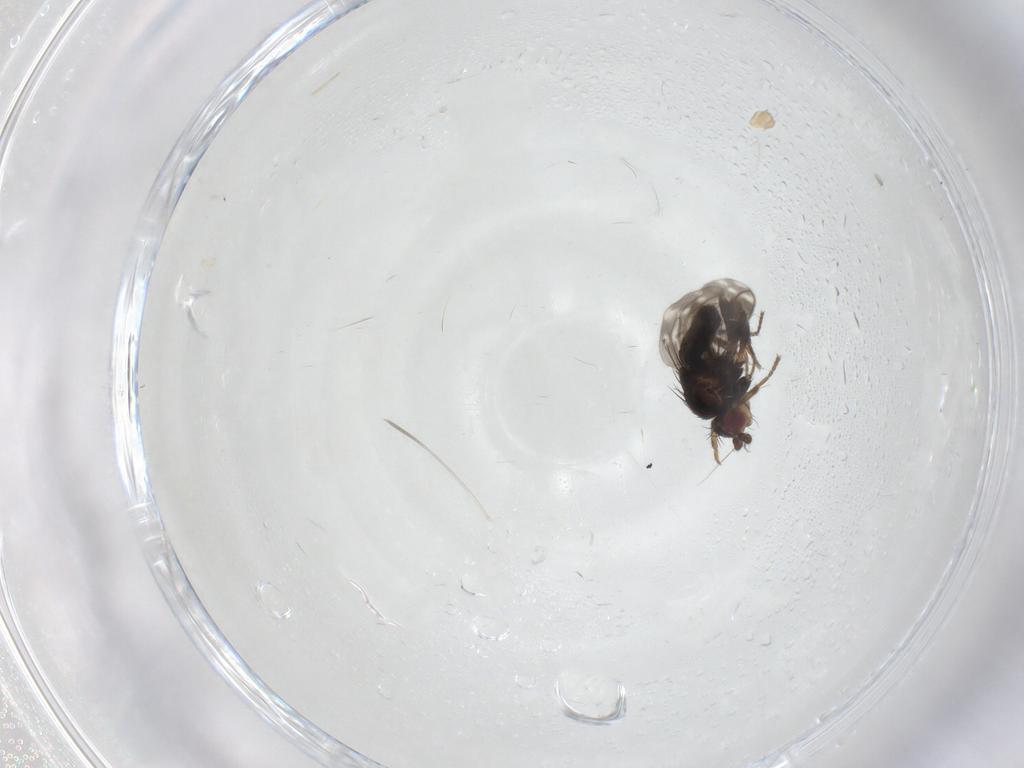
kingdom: Animalia
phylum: Arthropoda
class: Insecta
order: Diptera
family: Sphaeroceridae
